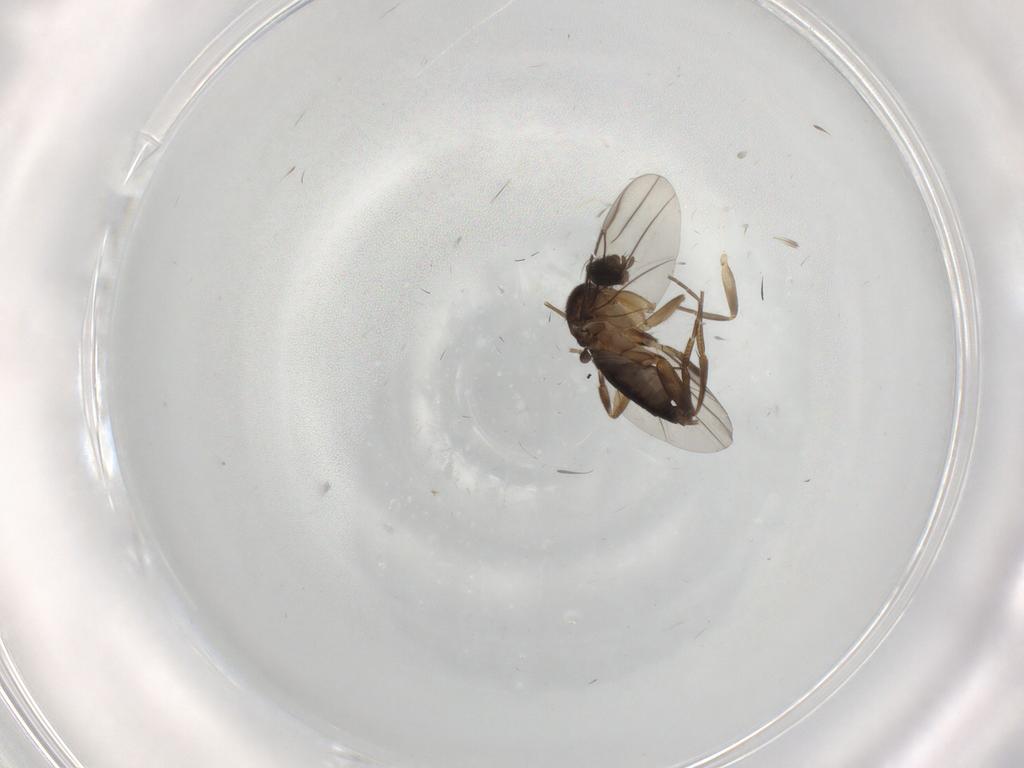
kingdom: Animalia
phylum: Arthropoda
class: Insecta
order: Diptera
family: Phoridae
